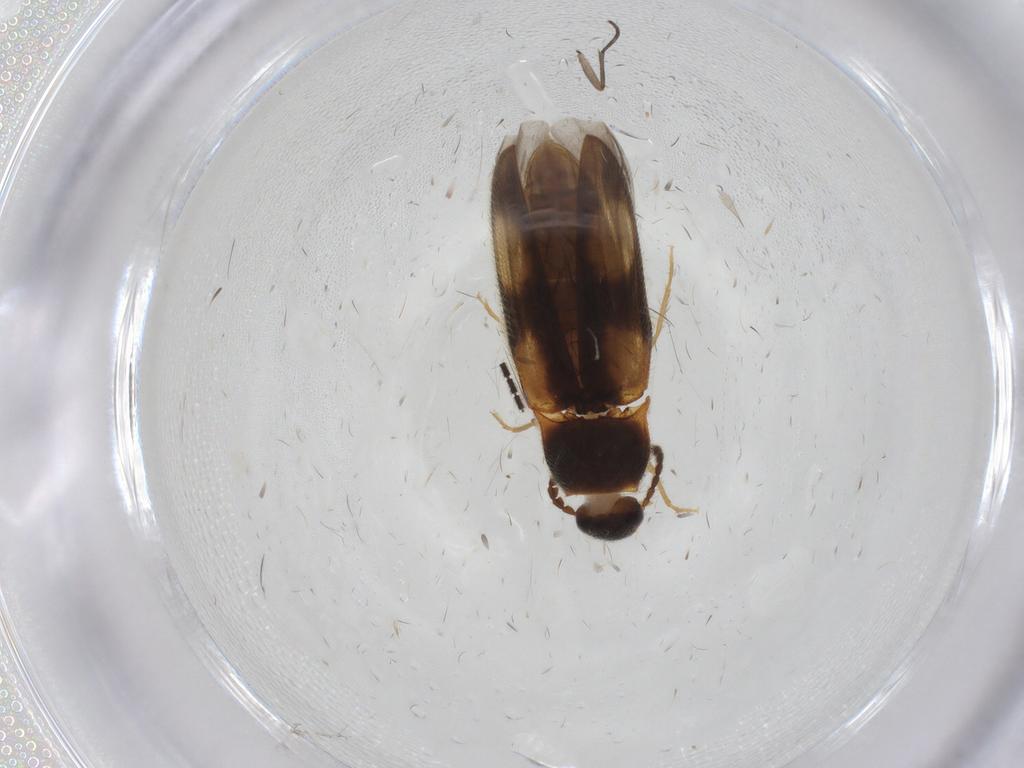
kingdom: Animalia
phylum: Arthropoda
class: Insecta
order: Coleoptera
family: Elateridae
